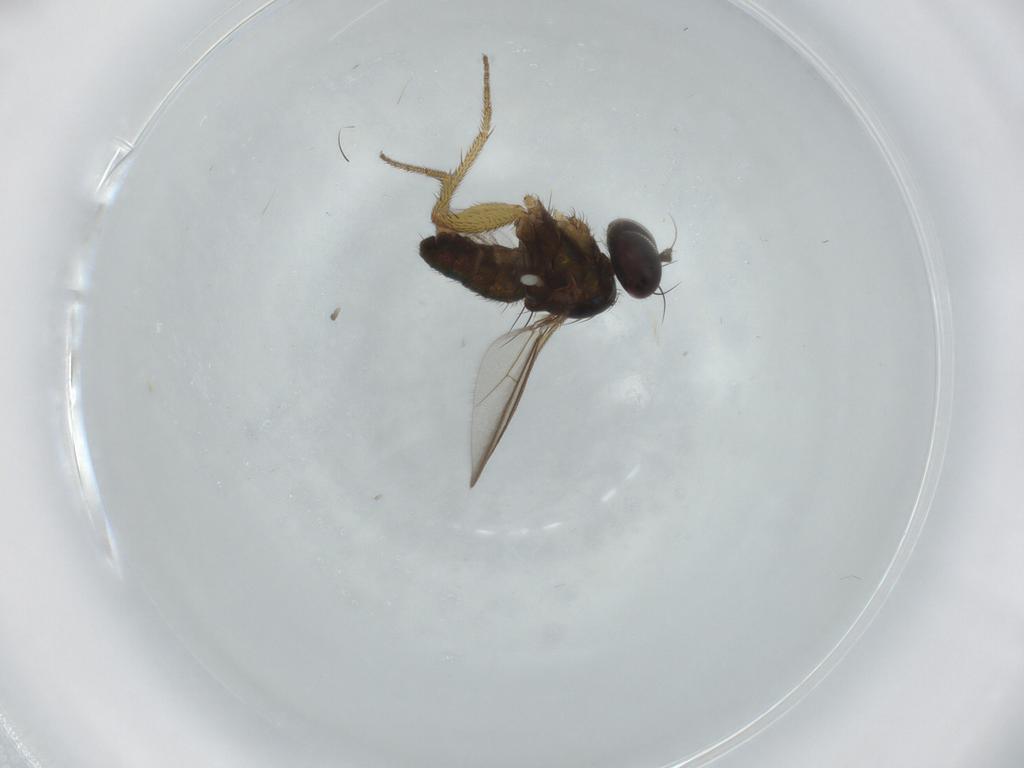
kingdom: Animalia
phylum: Arthropoda
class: Insecta
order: Diptera
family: Dolichopodidae
